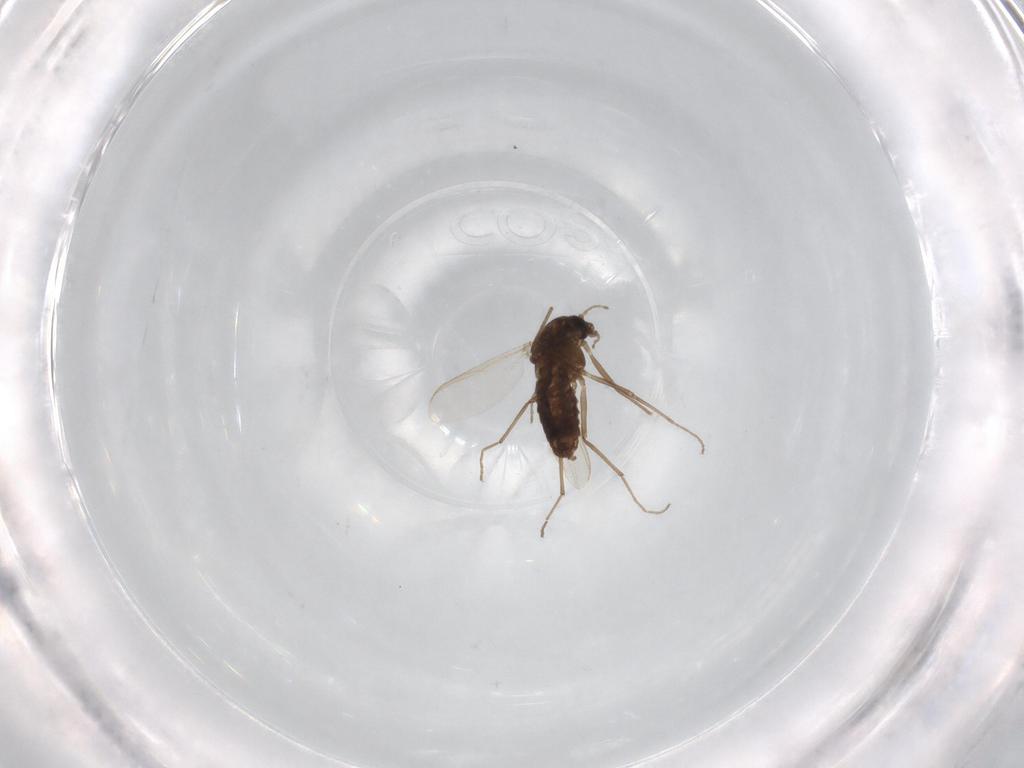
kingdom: Animalia
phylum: Arthropoda
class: Insecta
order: Diptera
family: Chironomidae
